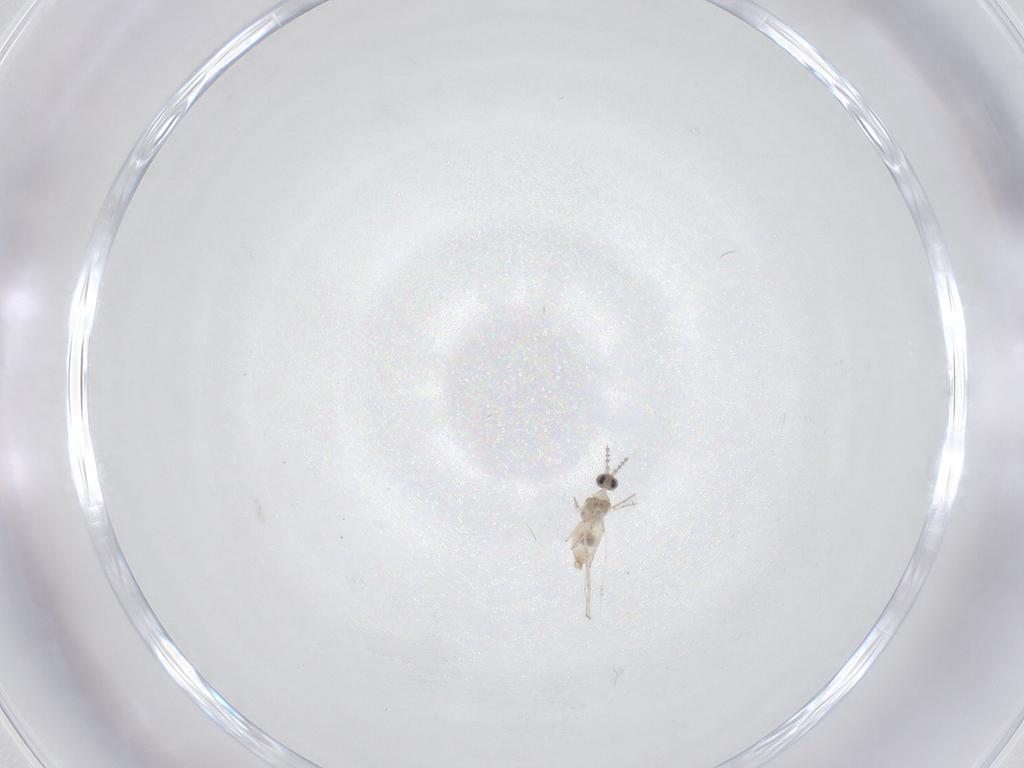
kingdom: Animalia
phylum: Arthropoda
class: Insecta
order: Diptera
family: Cecidomyiidae
